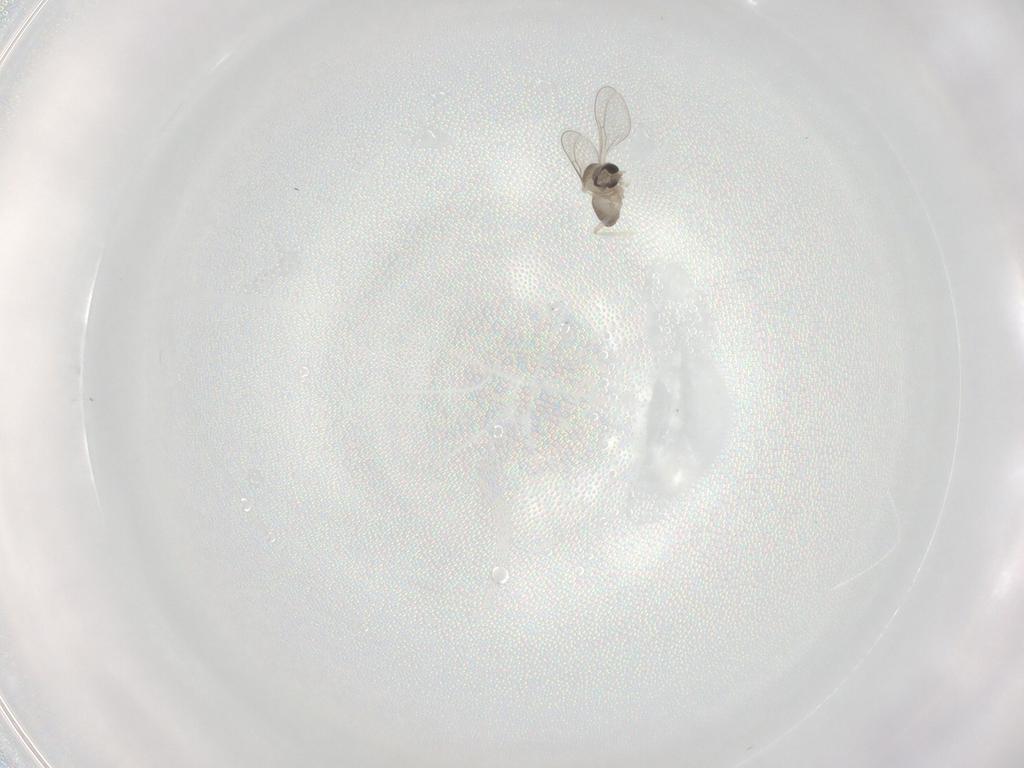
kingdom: Animalia
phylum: Arthropoda
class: Insecta
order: Diptera
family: Cecidomyiidae
